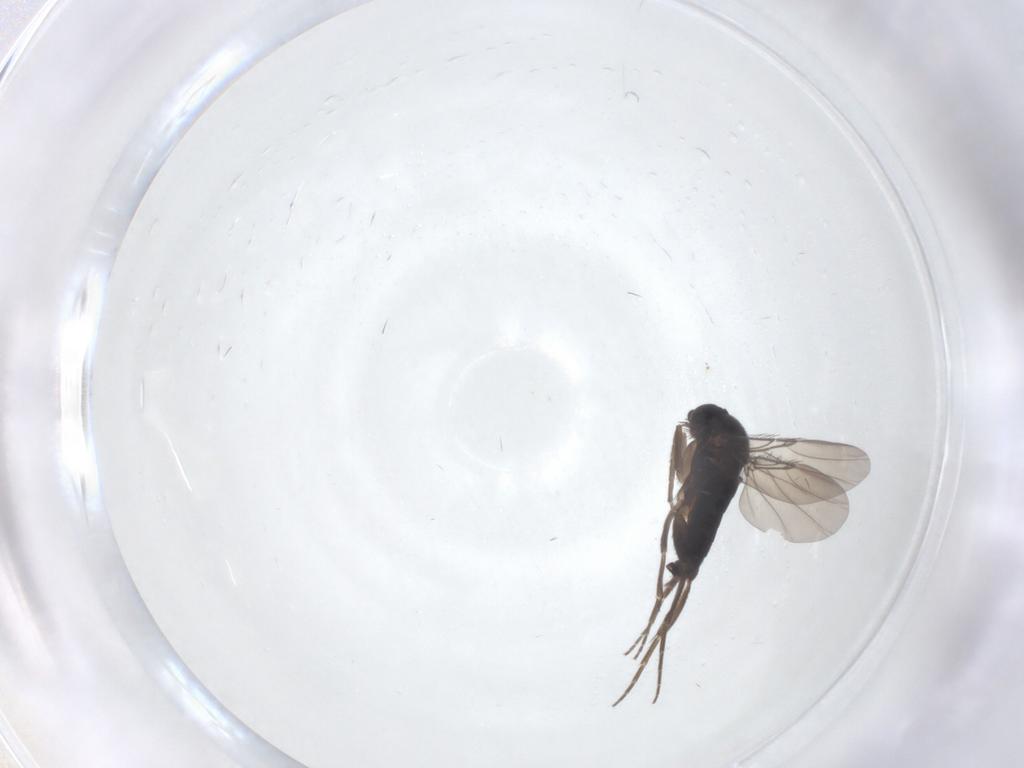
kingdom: Animalia
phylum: Arthropoda
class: Insecta
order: Diptera
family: Phoridae
